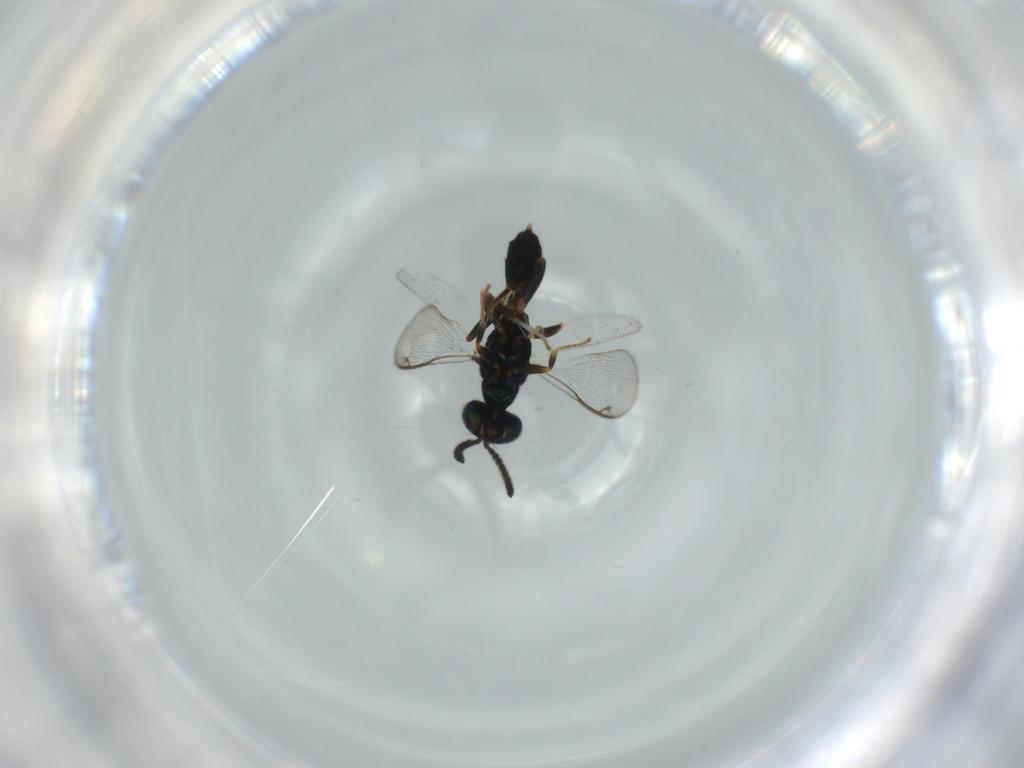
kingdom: Animalia
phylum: Arthropoda
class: Insecta
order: Hymenoptera
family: Cleonyminae
